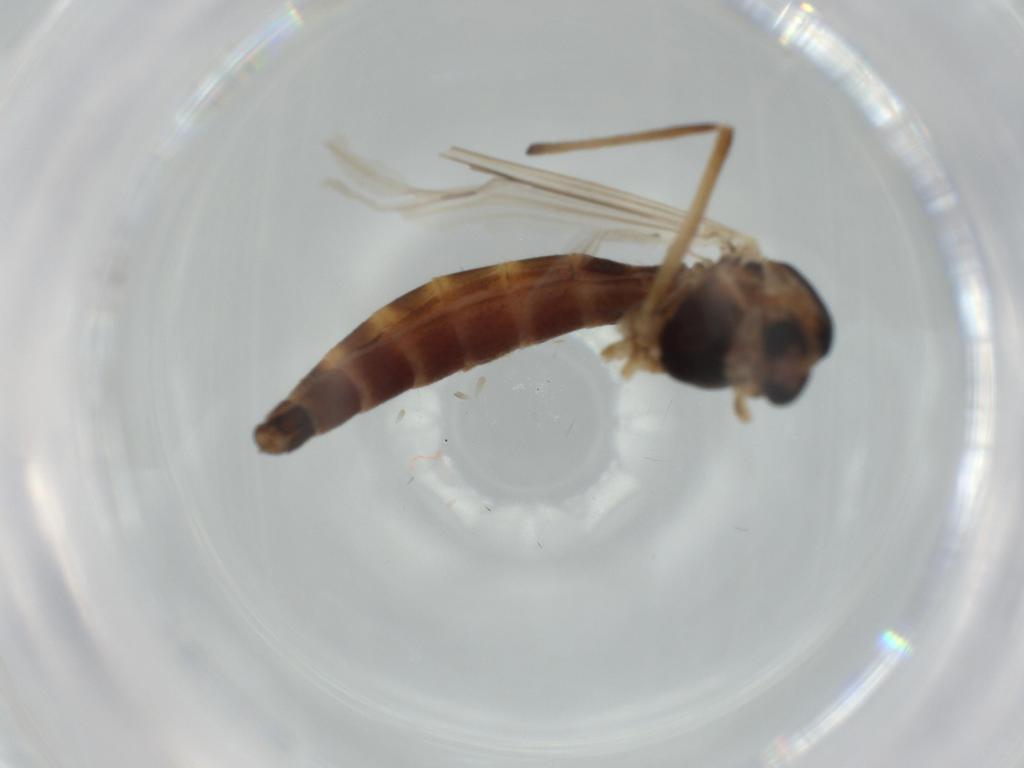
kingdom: Animalia
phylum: Arthropoda
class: Insecta
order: Diptera
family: Chironomidae
